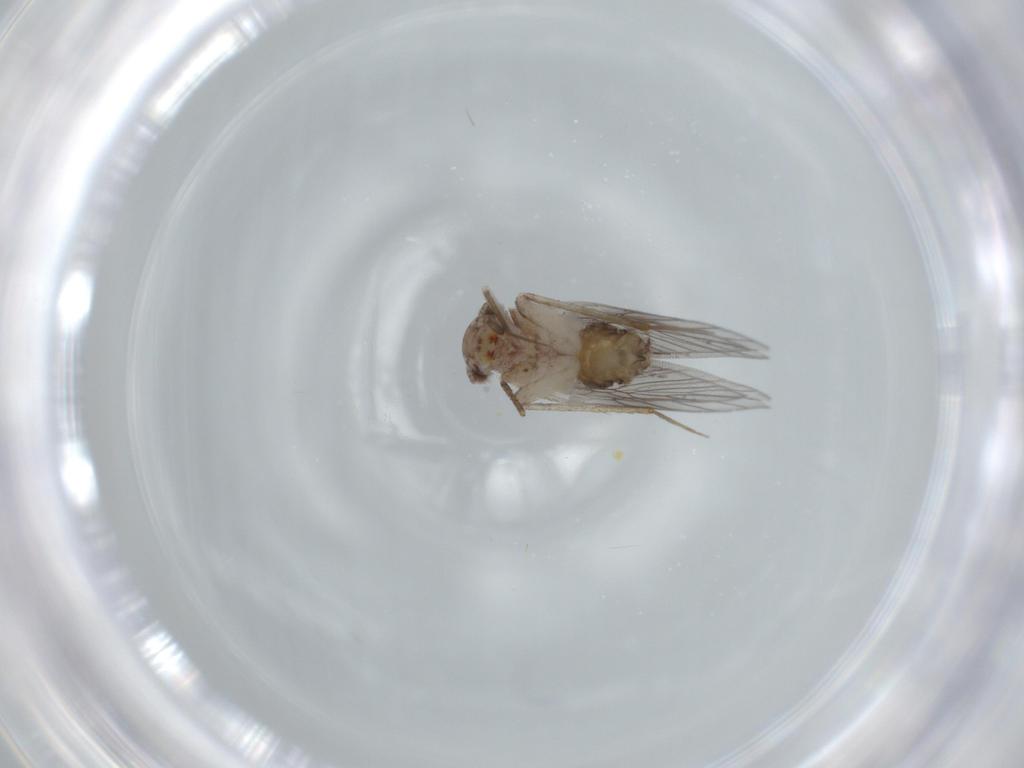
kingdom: Animalia
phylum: Arthropoda
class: Insecta
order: Psocodea
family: Lepidopsocidae
